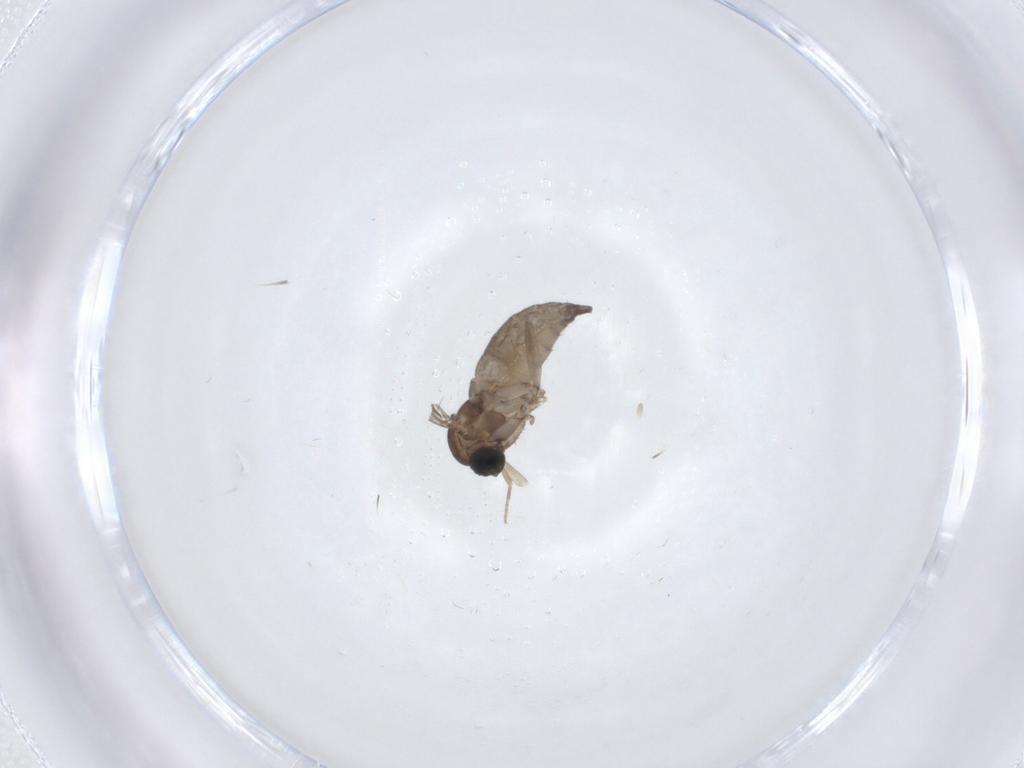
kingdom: Animalia
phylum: Arthropoda
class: Insecta
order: Diptera
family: Sciaridae
